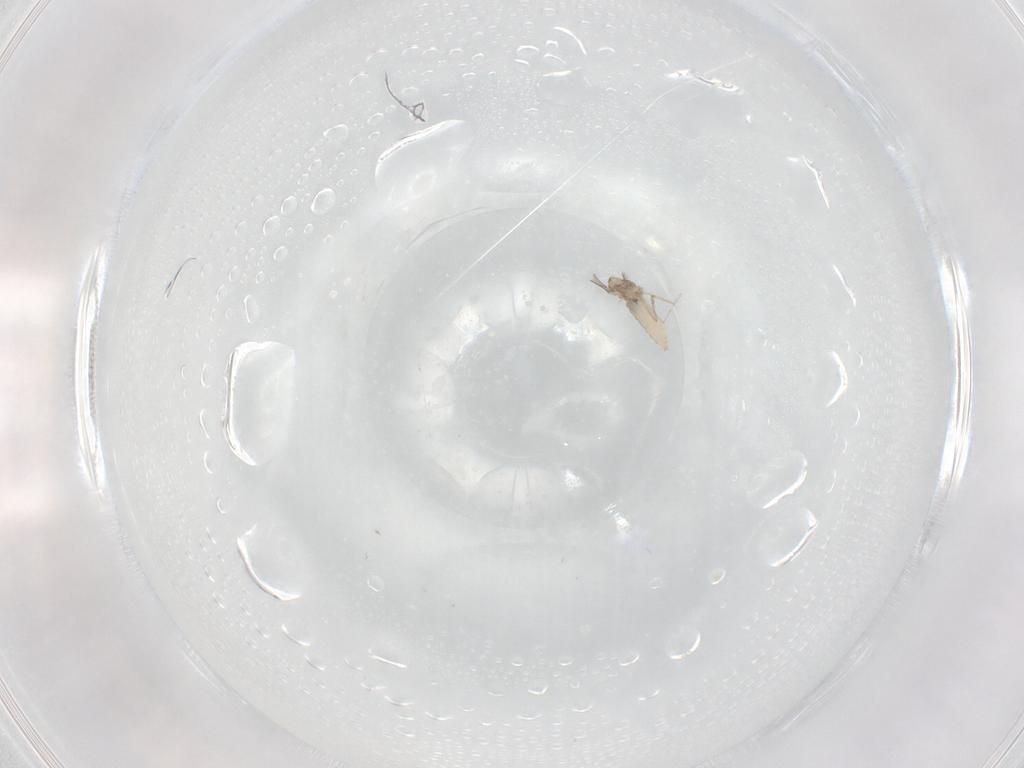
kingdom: Animalia
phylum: Arthropoda
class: Insecta
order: Diptera
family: Cecidomyiidae
